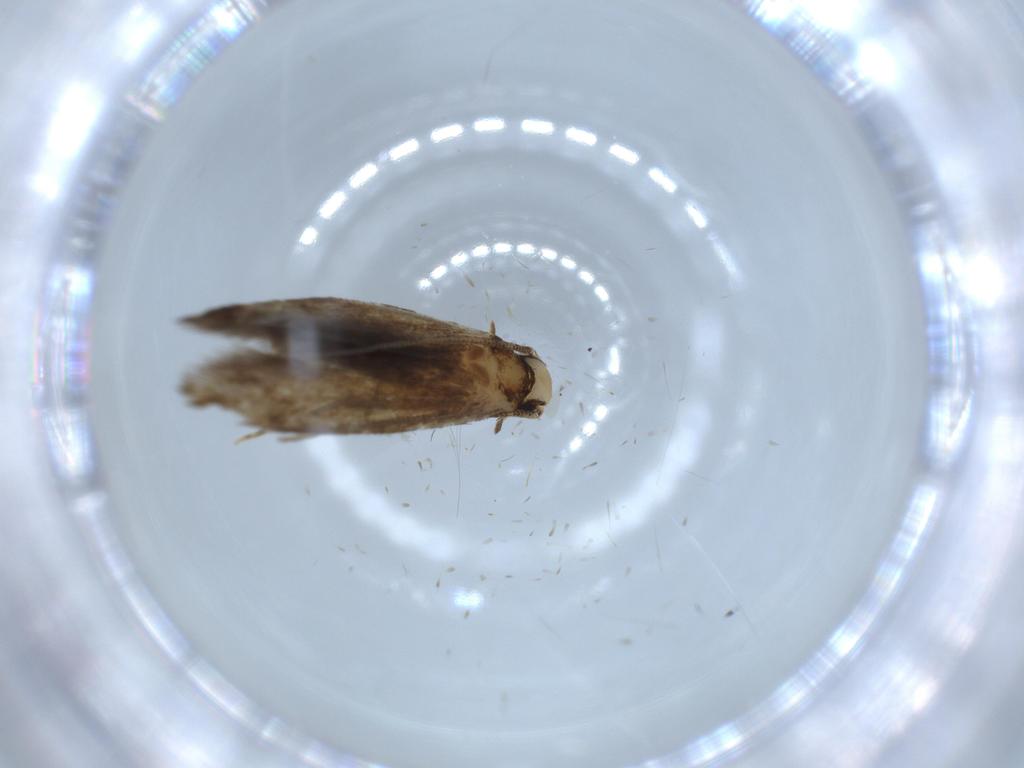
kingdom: Animalia
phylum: Arthropoda
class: Insecta
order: Lepidoptera
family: Tineidae
